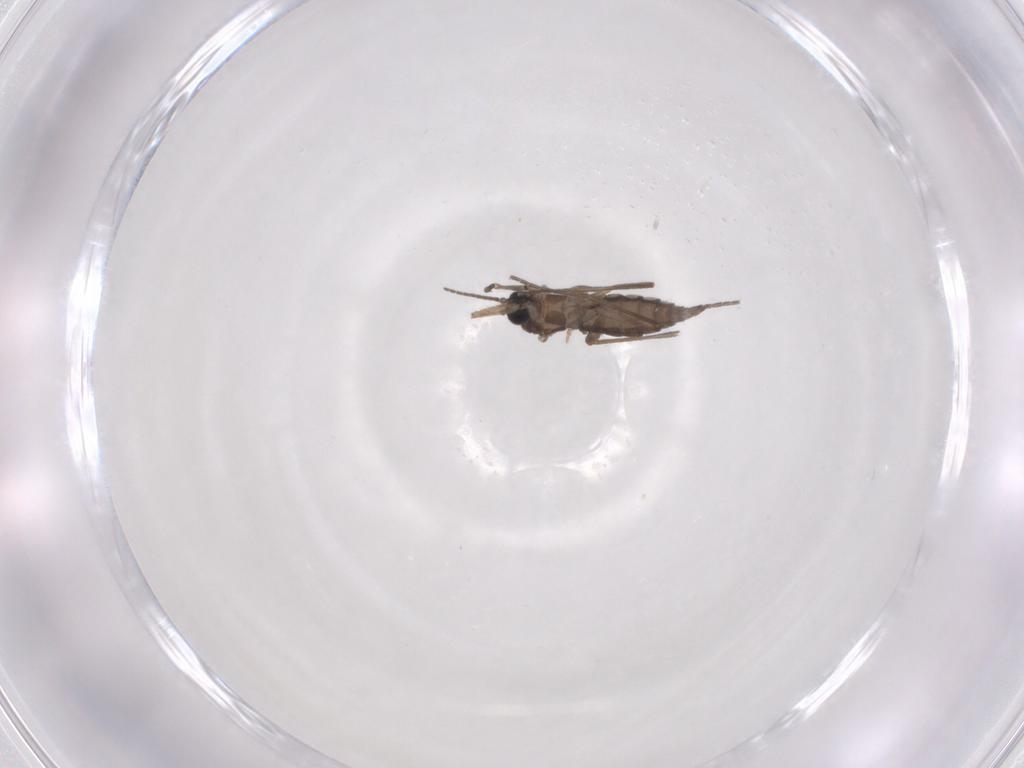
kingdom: Animalia
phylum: Arthropoda
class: Insecta
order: Diptera
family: Sciaridae
